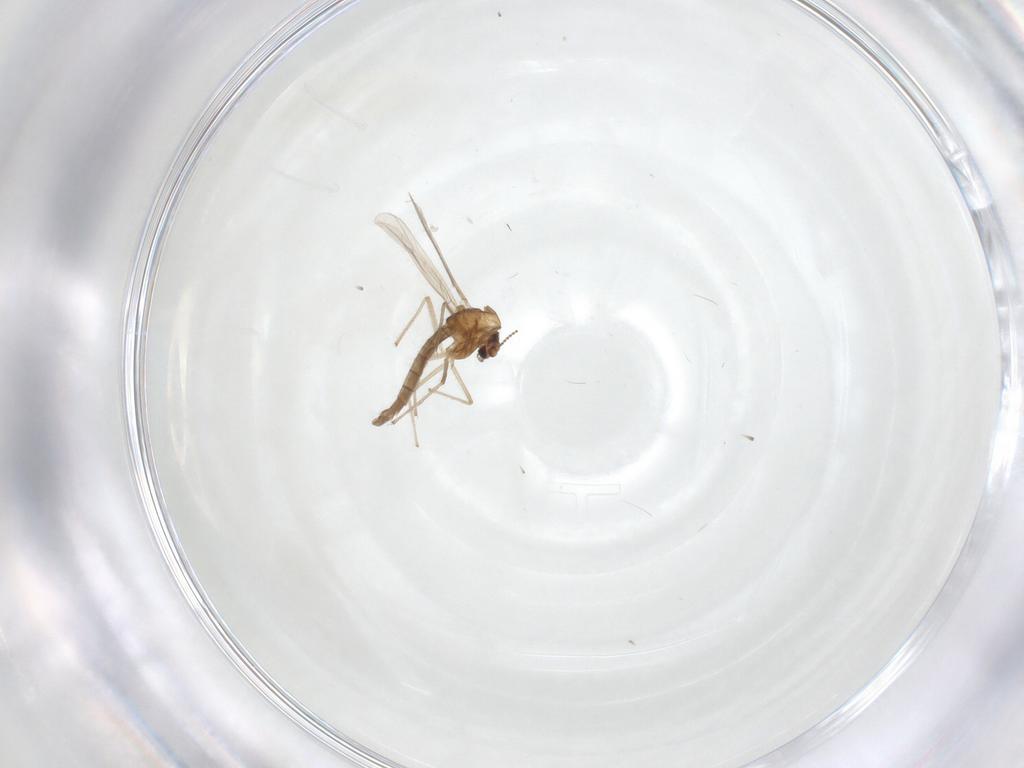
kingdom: Animalia
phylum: Arthropoda
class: Insecta
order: Diptera
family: Chironomidae
